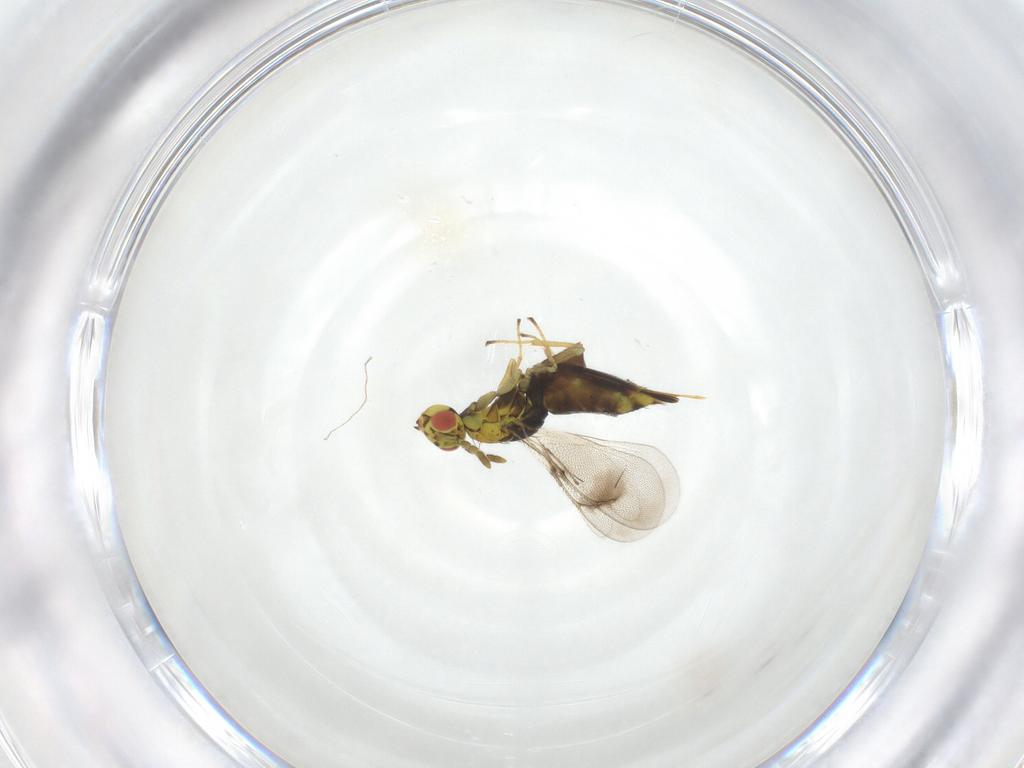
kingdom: Animalia
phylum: Arthropoda
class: Insecta
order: Hymenoptera
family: Eulophidae
